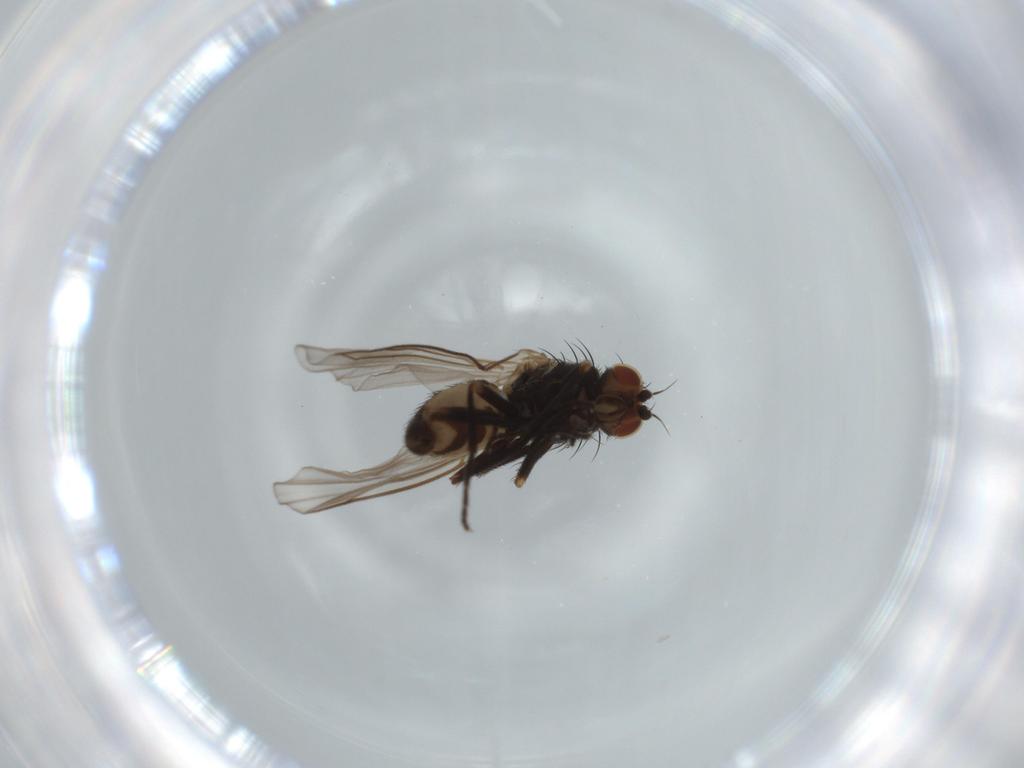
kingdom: Animalia
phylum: Arthropoda
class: Insecta
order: Diptera
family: Agromyzidae
